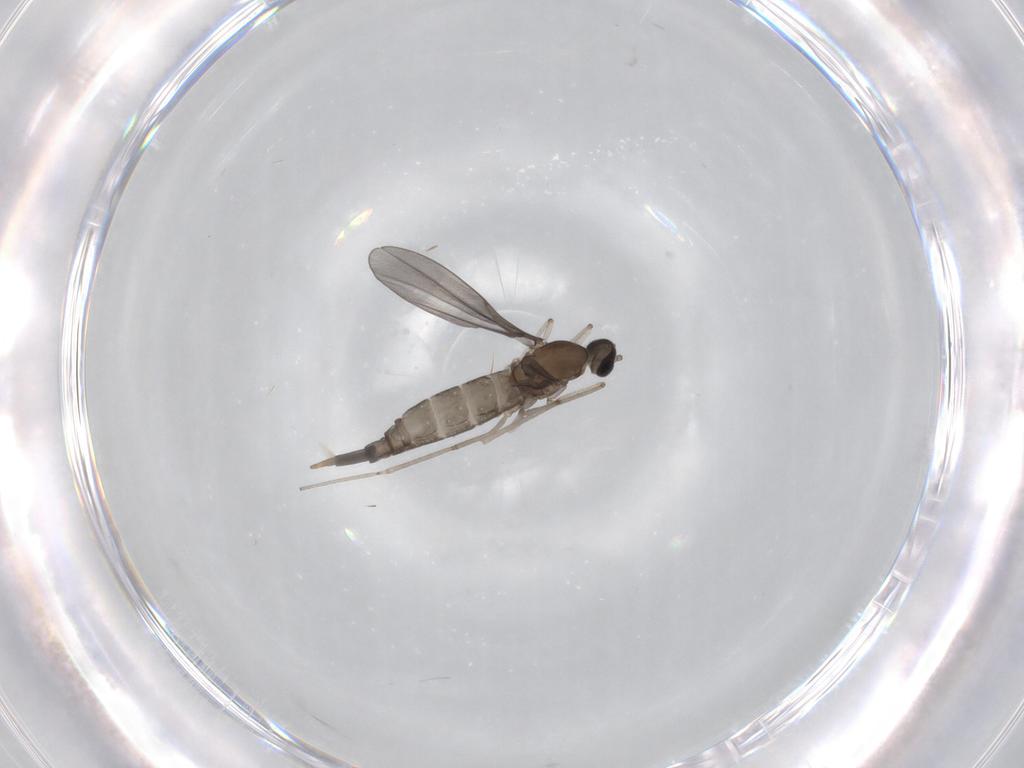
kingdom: Animalia
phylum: Arthropoda
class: Insecta
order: Diptera
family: Cecidomyiidae
